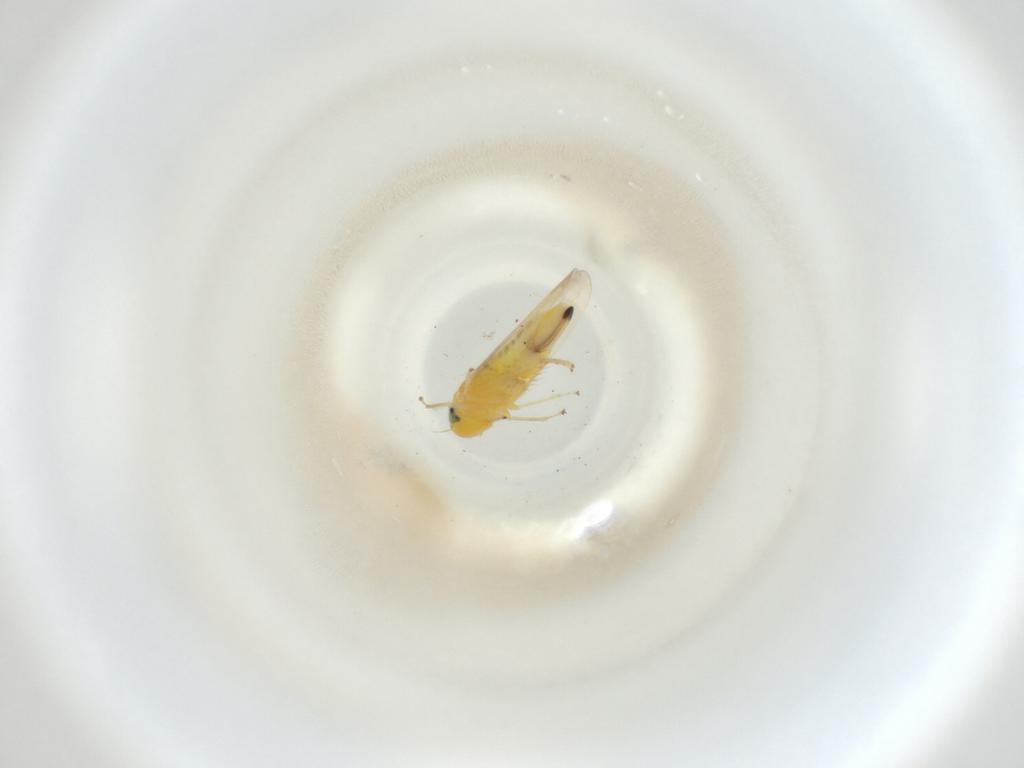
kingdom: Animalia
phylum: Arthropoda
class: Insecta
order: Hemiptera
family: Cicadellidae
